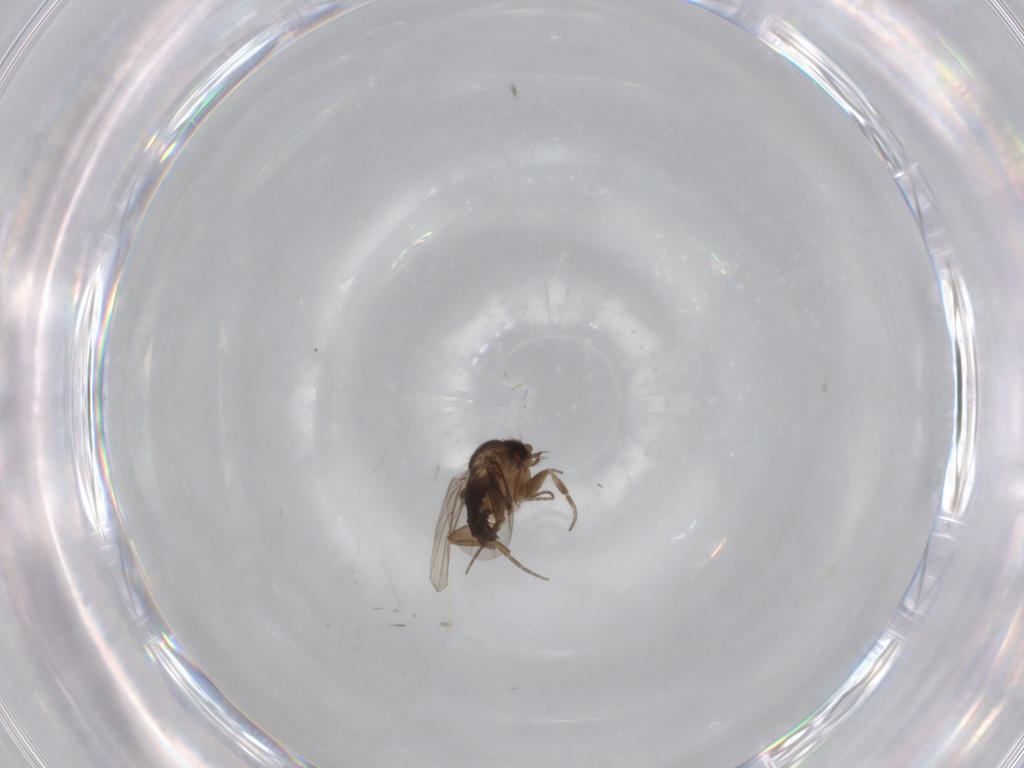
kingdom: Animalia
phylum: Arthropoda
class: Insecta
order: Diptera
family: Phoridae
